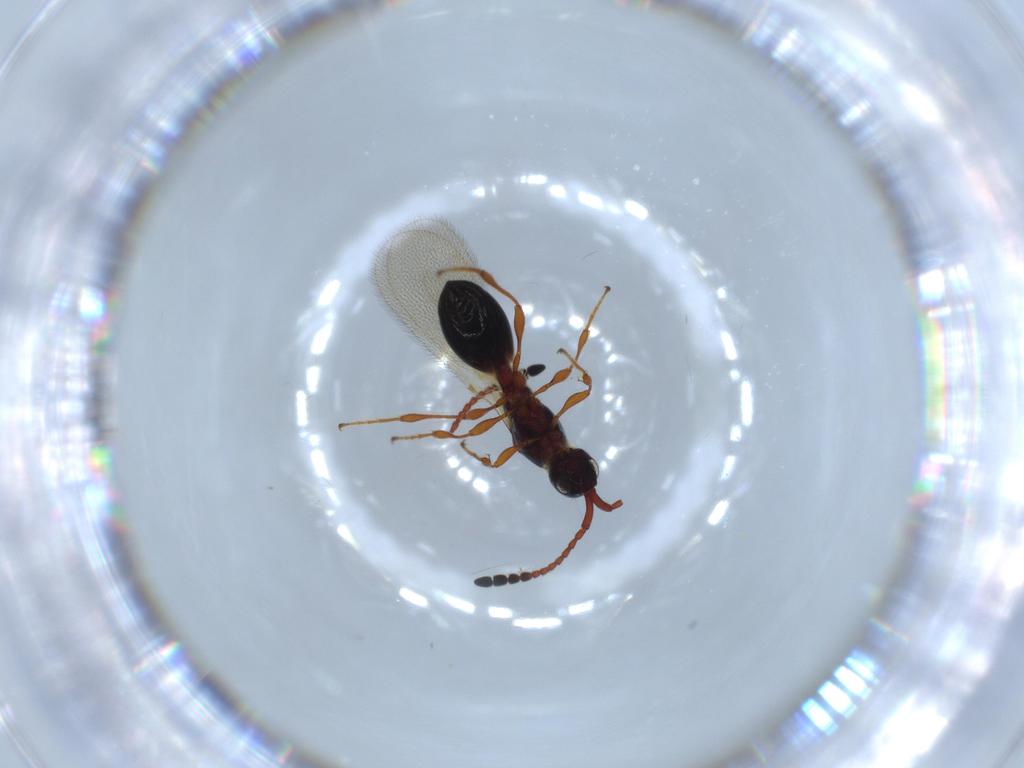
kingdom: Animalia
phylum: Arthropoda
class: Insecta
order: Hymenoptera
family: Diapriidae
